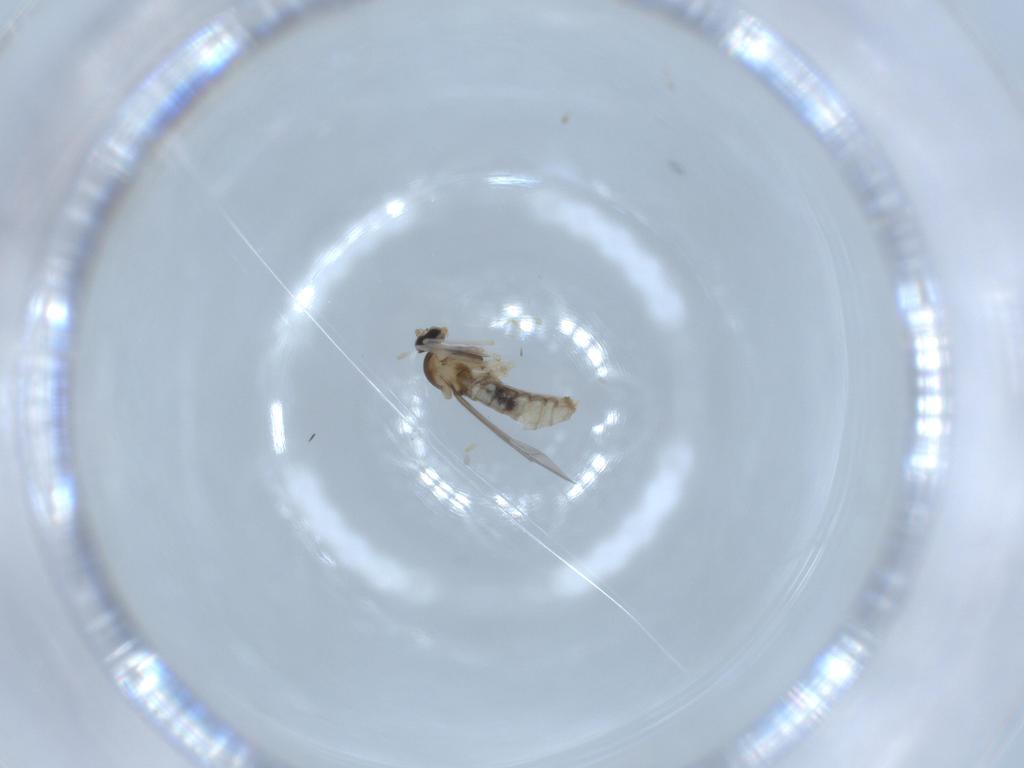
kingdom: Animalia
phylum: Arthropoda
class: Insecta
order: Diptera
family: Cecidomyiidae
